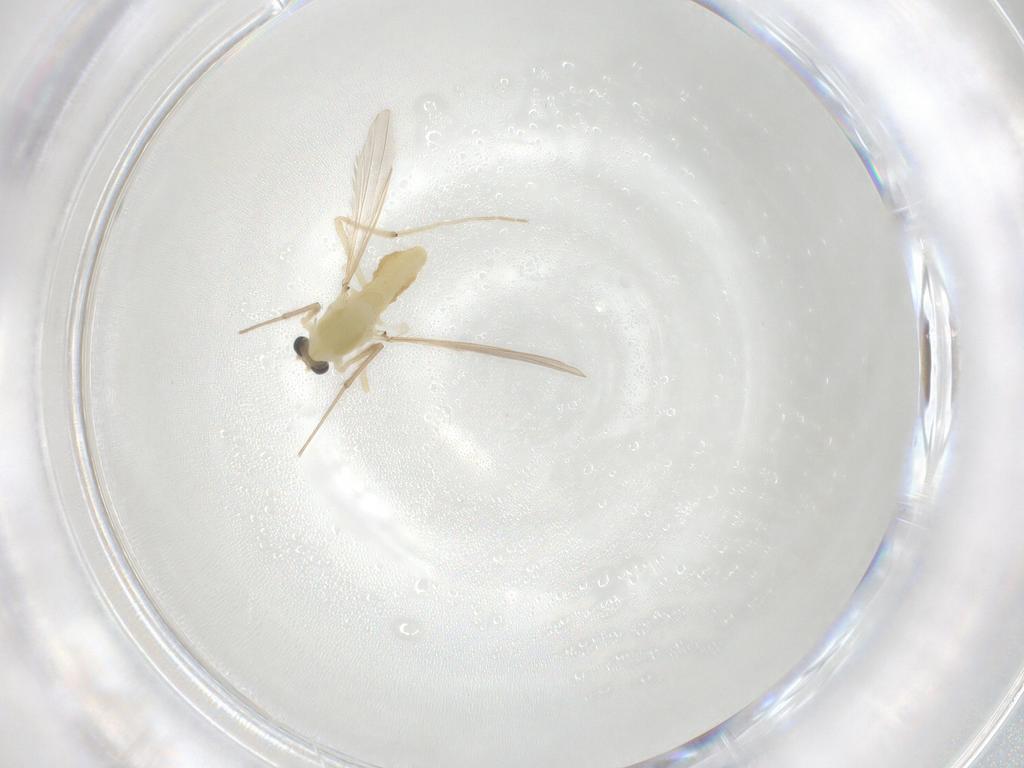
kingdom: Animalia
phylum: Arthropoda
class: Insecta
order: Diptera
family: Chironomidae
